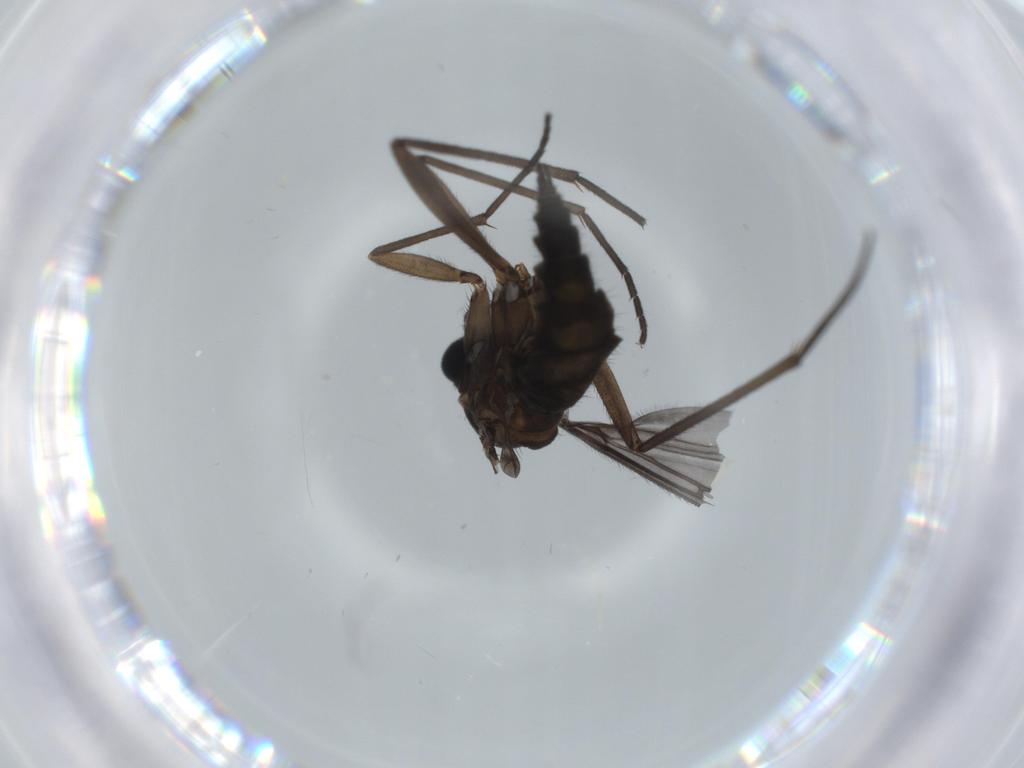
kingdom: Animalia
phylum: Arthropoda
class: Insecta
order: Diptera
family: Sciaridae
